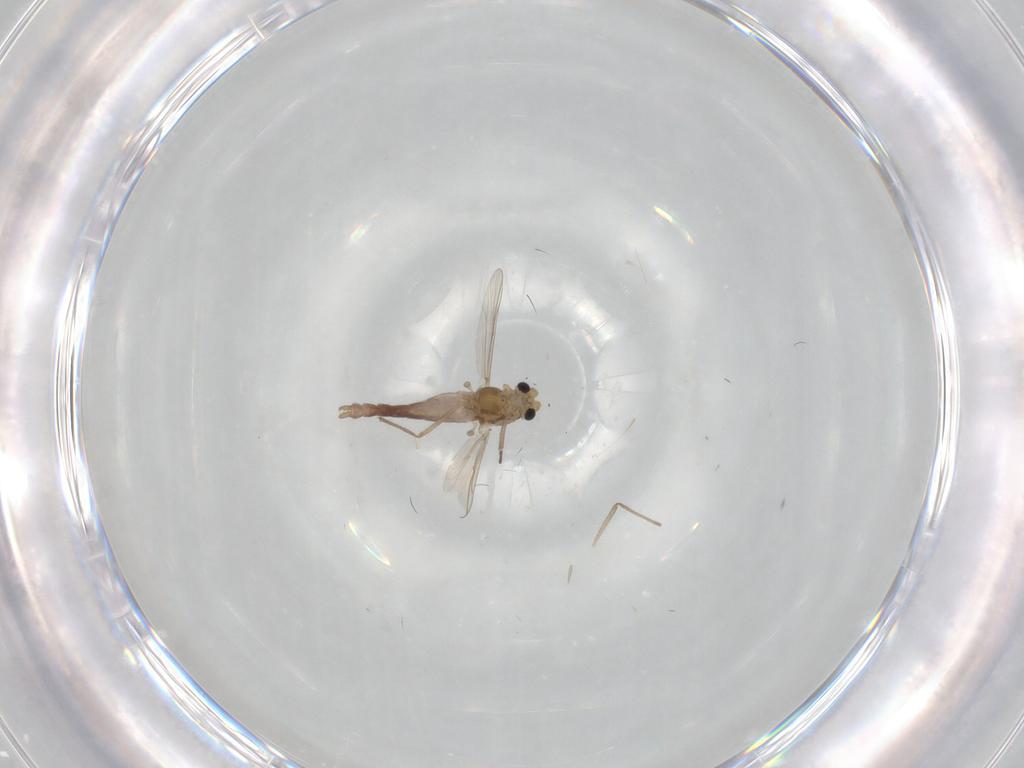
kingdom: Animalia
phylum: Arthropoda
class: Insecta
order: Diptera
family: Chironomidae
